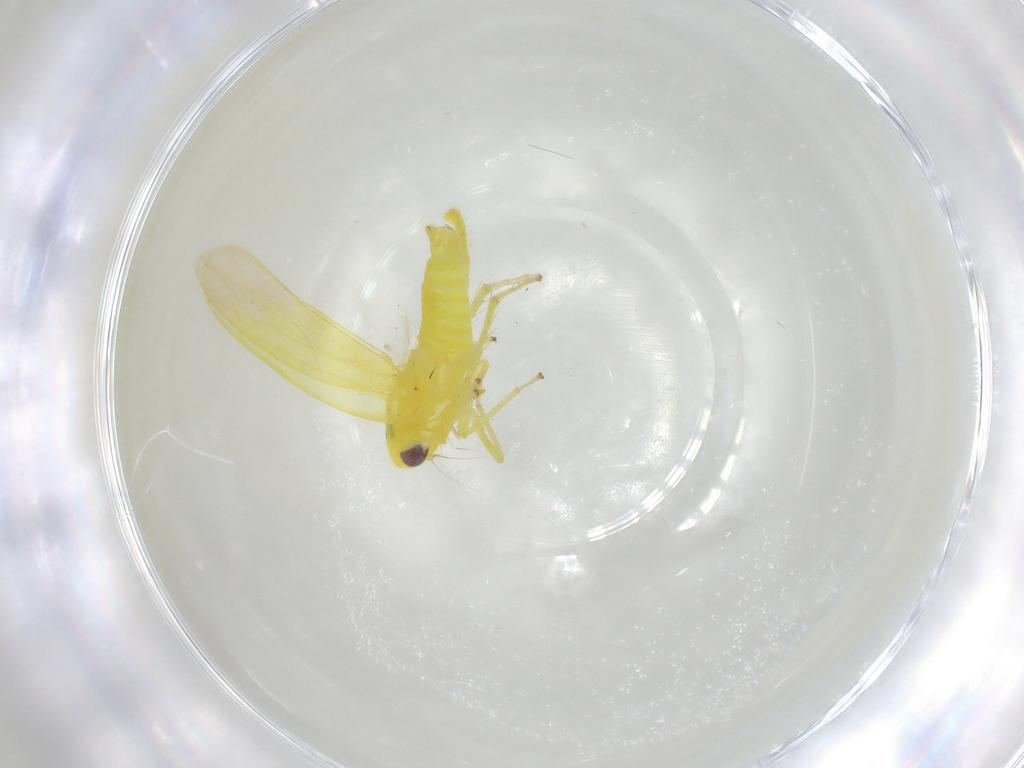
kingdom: Animalia
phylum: Arthropoda
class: Insecta
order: Hemiptera
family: Cicadellidae
